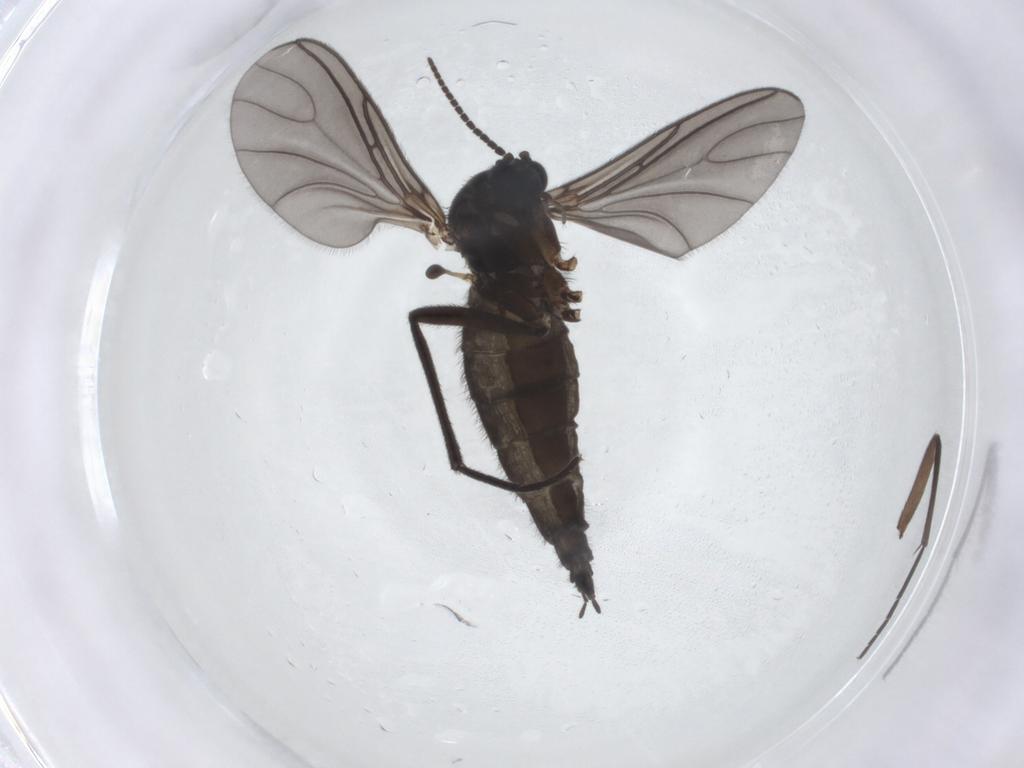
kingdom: Animalia
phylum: Arthropoda
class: Insecta
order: Diptera
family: Sciaridae
